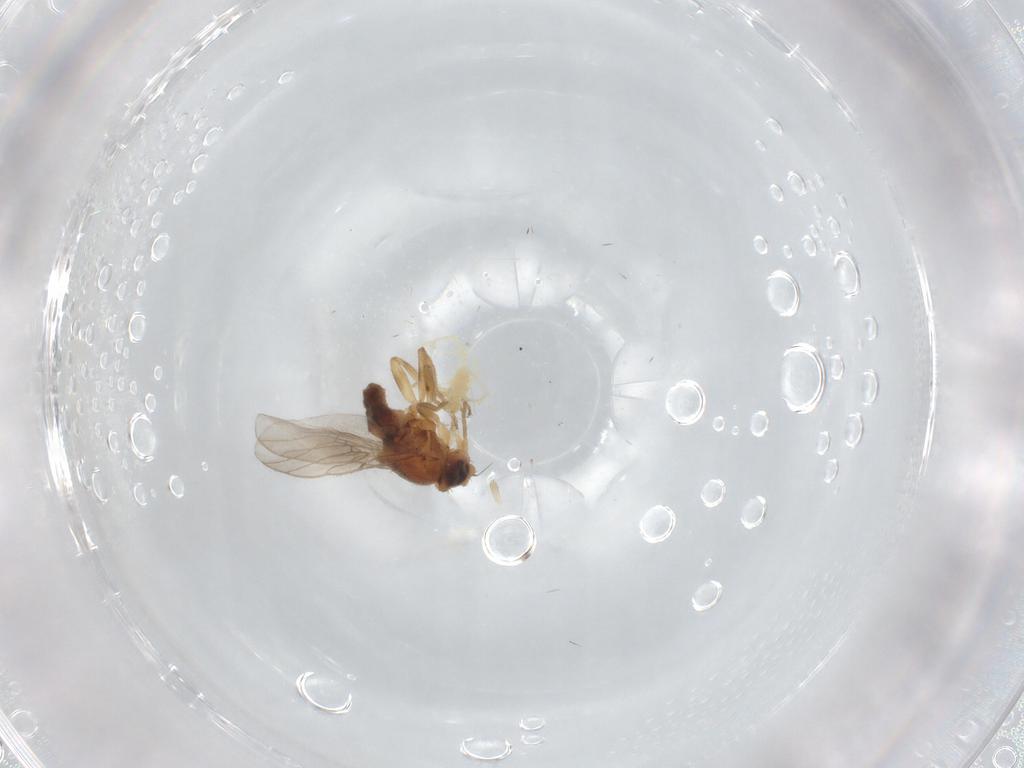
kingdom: Animalia
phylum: Arthropoda
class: Insecta
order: Diptera
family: Chloropidae
